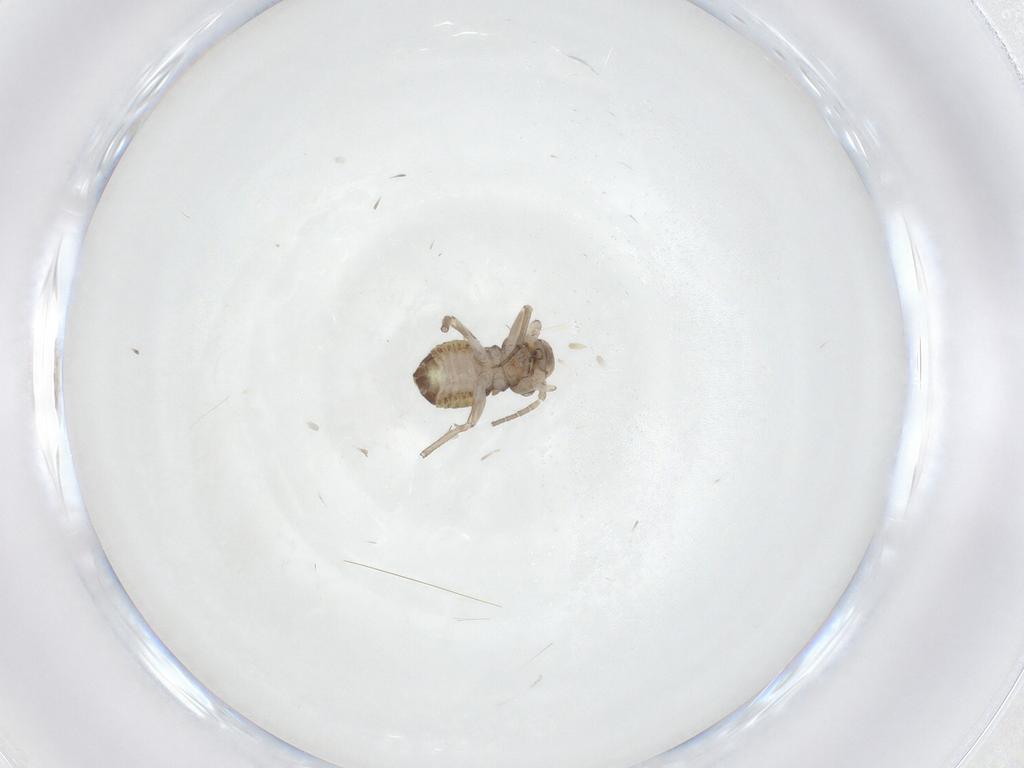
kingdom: Animalia
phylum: Arthropoda
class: Insecta
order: Psocodea
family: Psocidae
